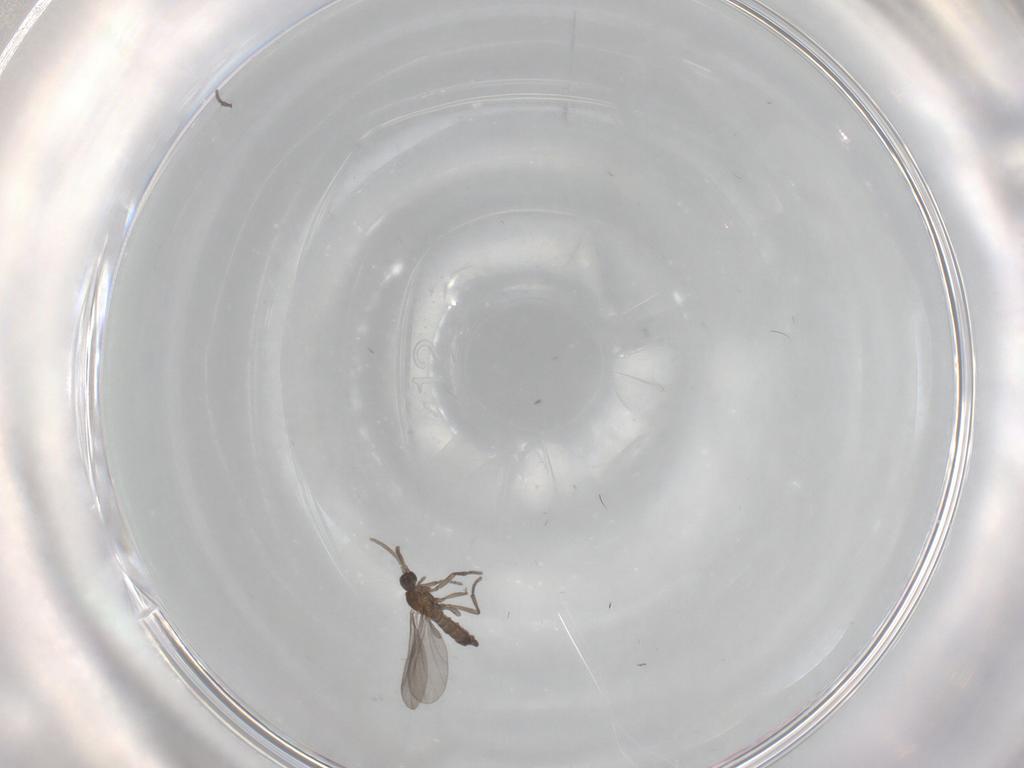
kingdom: Animalia
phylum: Arthropoda
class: Insecta
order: Diptera
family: Sciaridae
